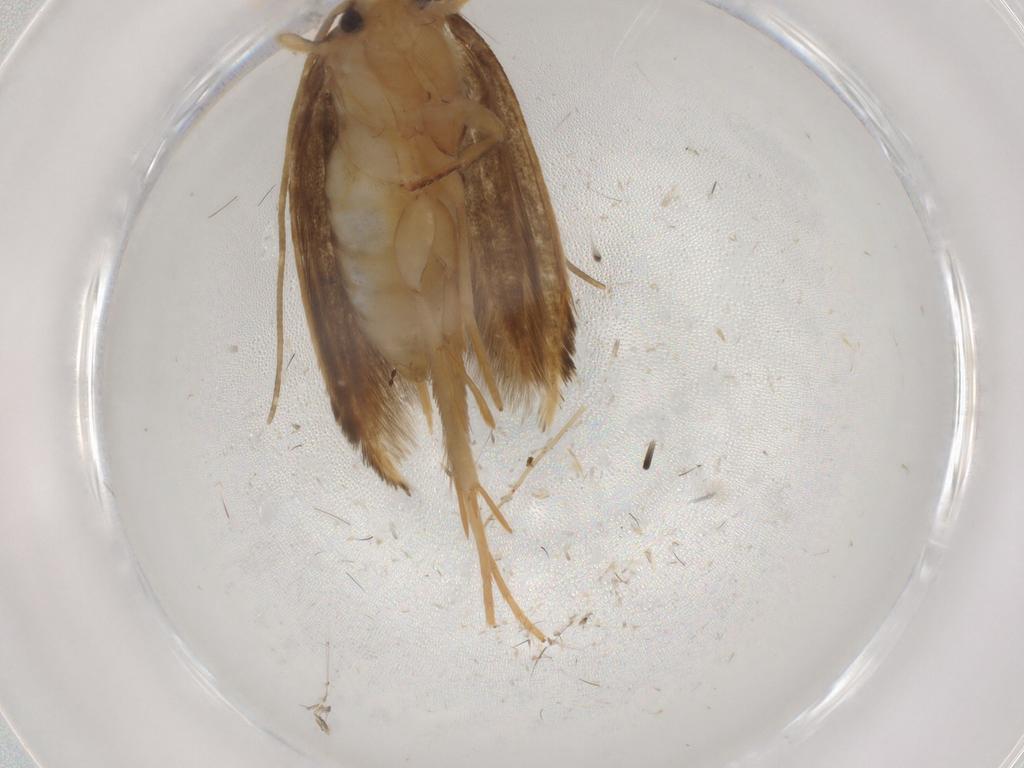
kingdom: Animalia
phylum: Arthropoda
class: Insecta
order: Lepidoptera
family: Tineidae
